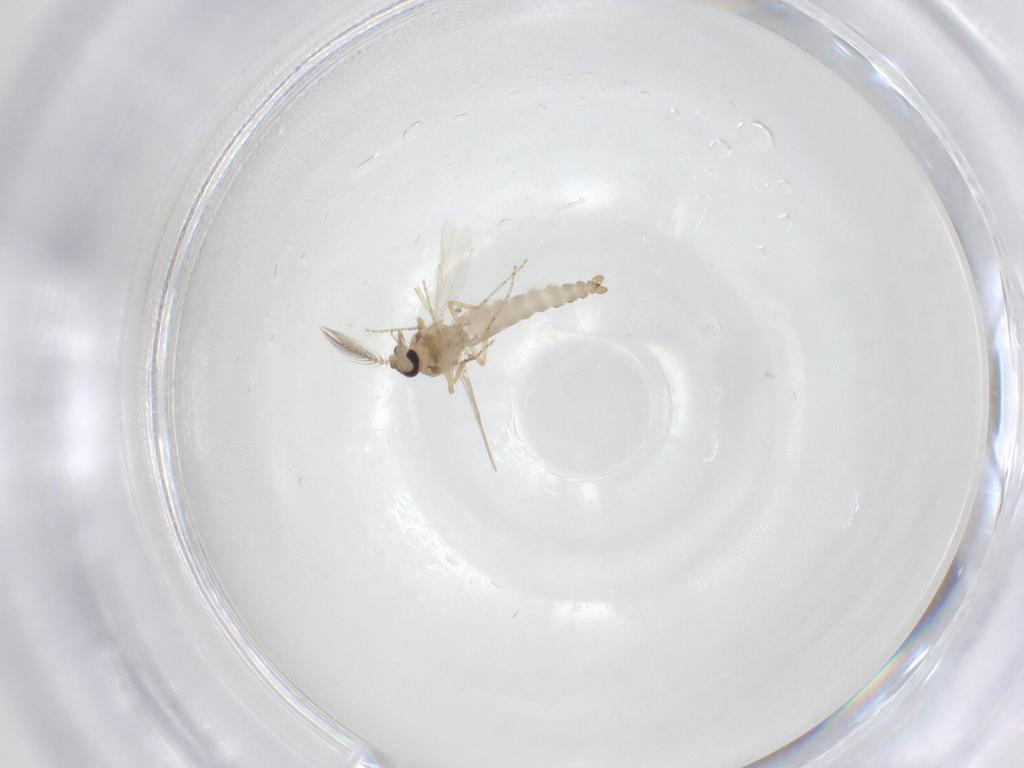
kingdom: Animalia
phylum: Arthropoda
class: Insecta
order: Diptera
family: Ceratopogonidae
